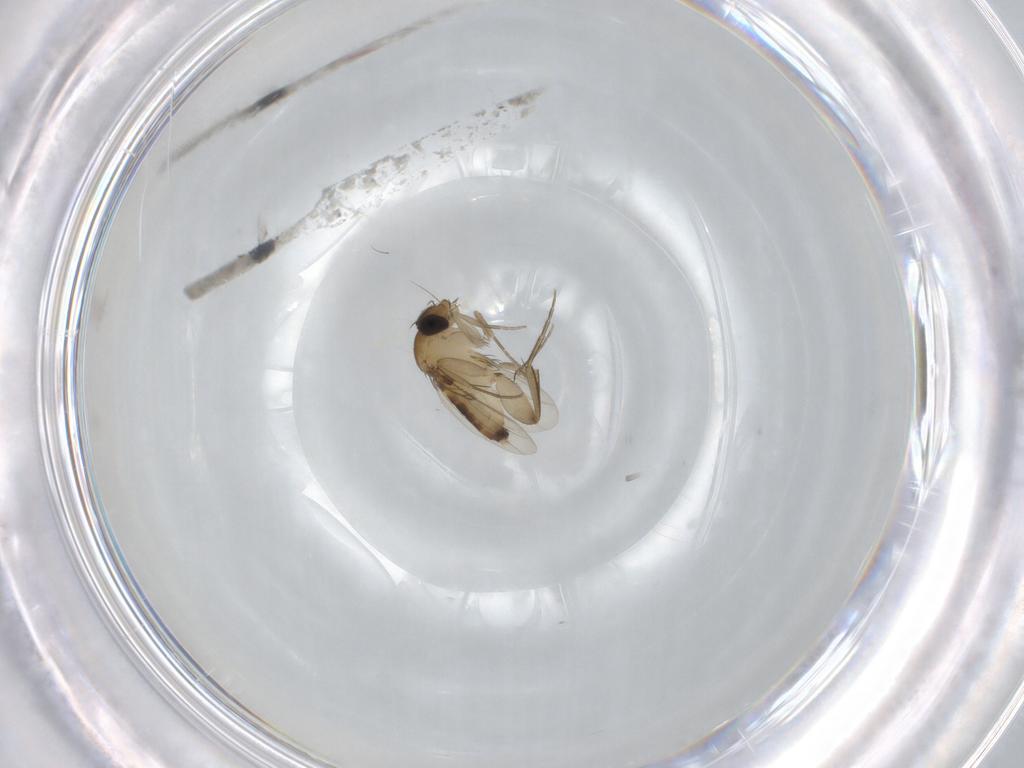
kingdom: Animalia
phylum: Arthropoda
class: Insecta
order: Diptera
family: Phoridae
